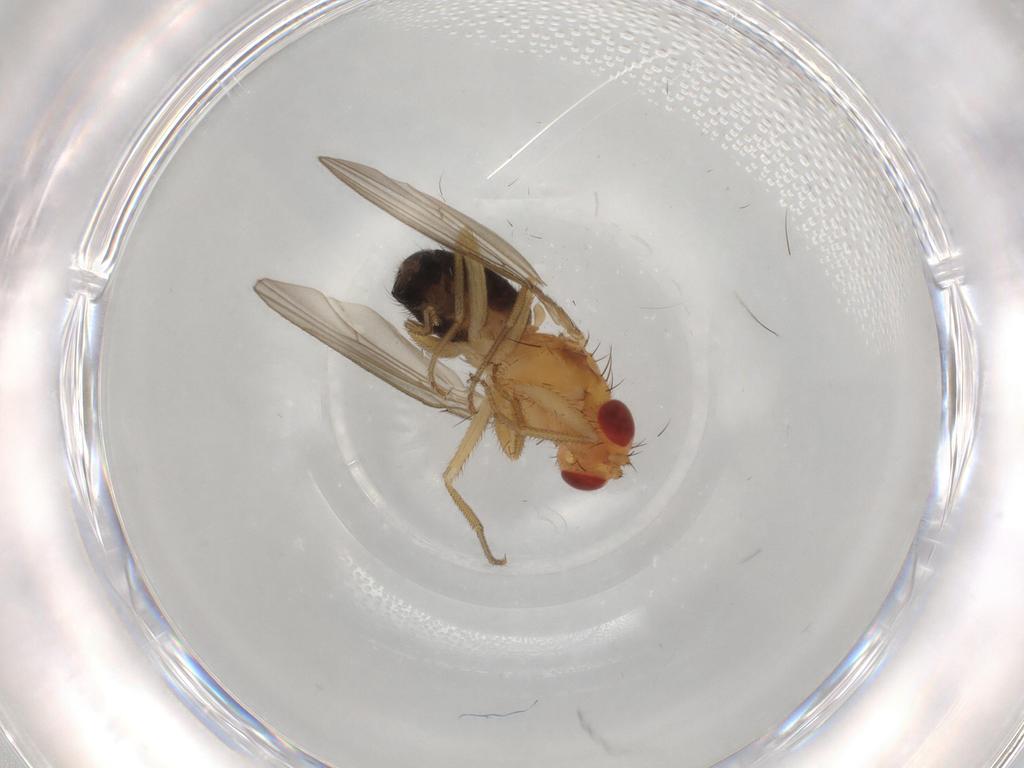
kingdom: Animalia
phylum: Arthropoda
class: Insecta
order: Diptera
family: Drosophilidae
